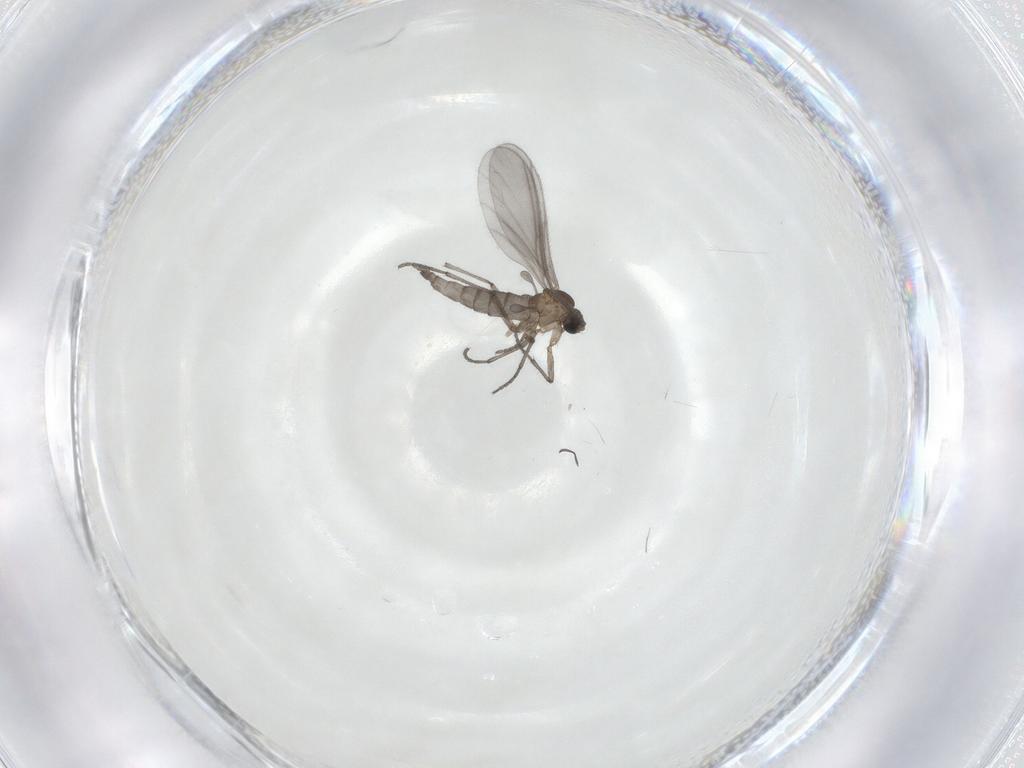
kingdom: Animalia
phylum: Arthropoda
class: Insecta
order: Diptera
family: Sciaridae
